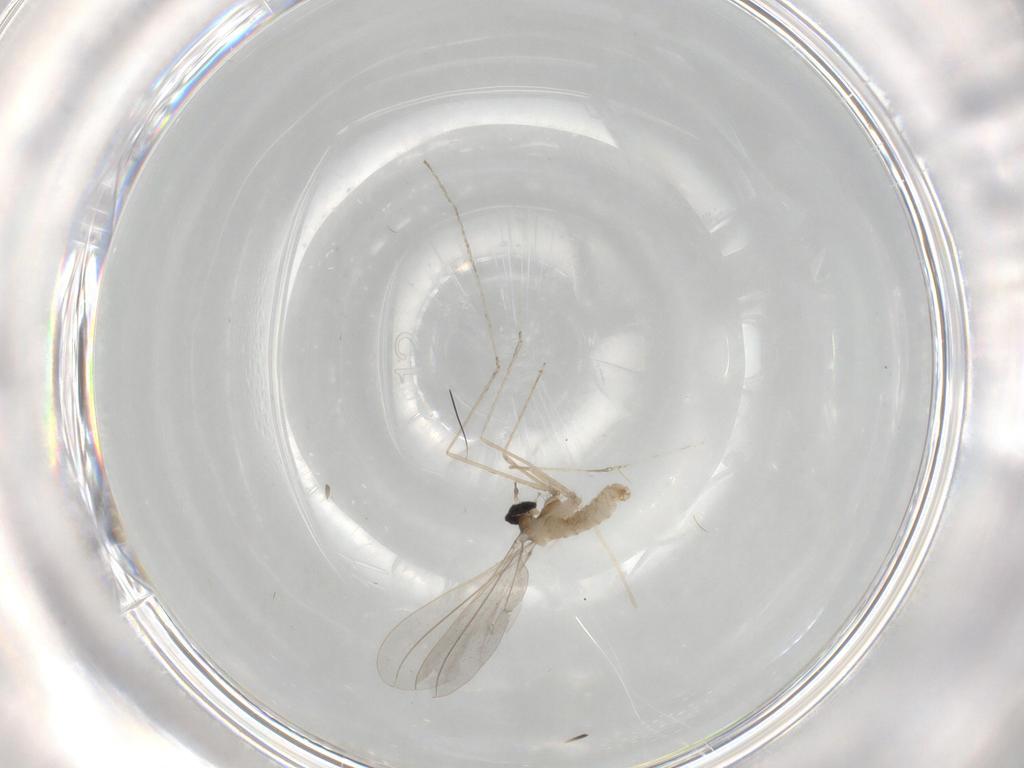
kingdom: Animalia
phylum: Arthropoda
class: Insecta
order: Diptera
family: Cecidomyiidae
